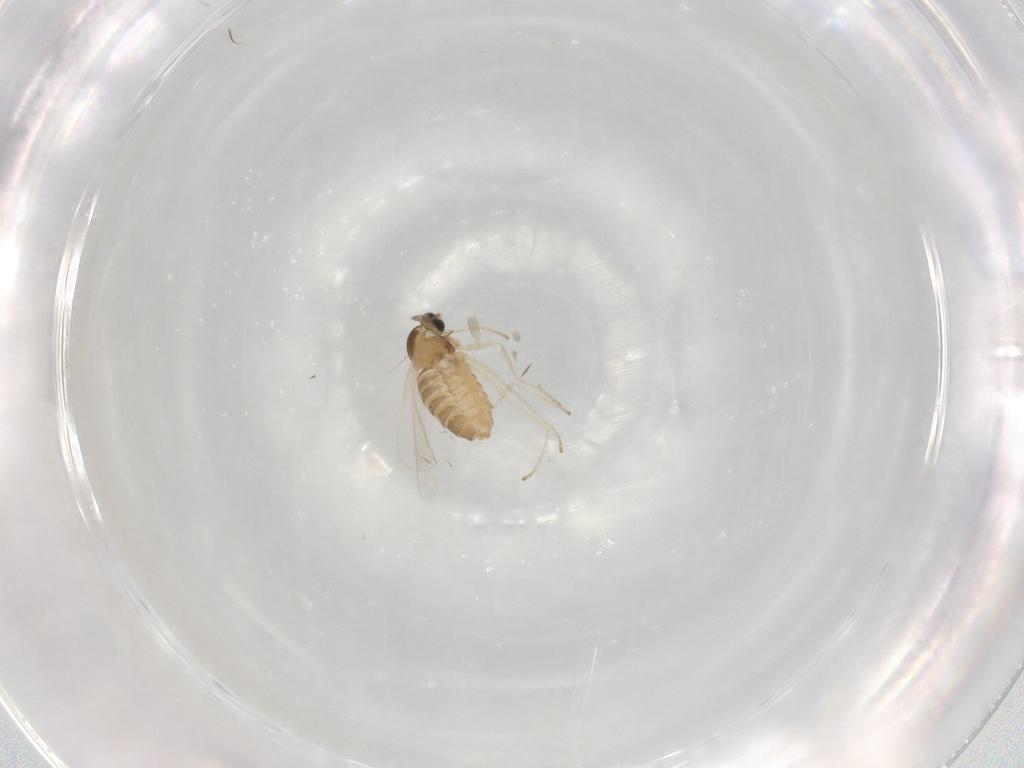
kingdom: Animalia
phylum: Arthropoda
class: Insecta
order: Diptera
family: Cecidomyiidae
